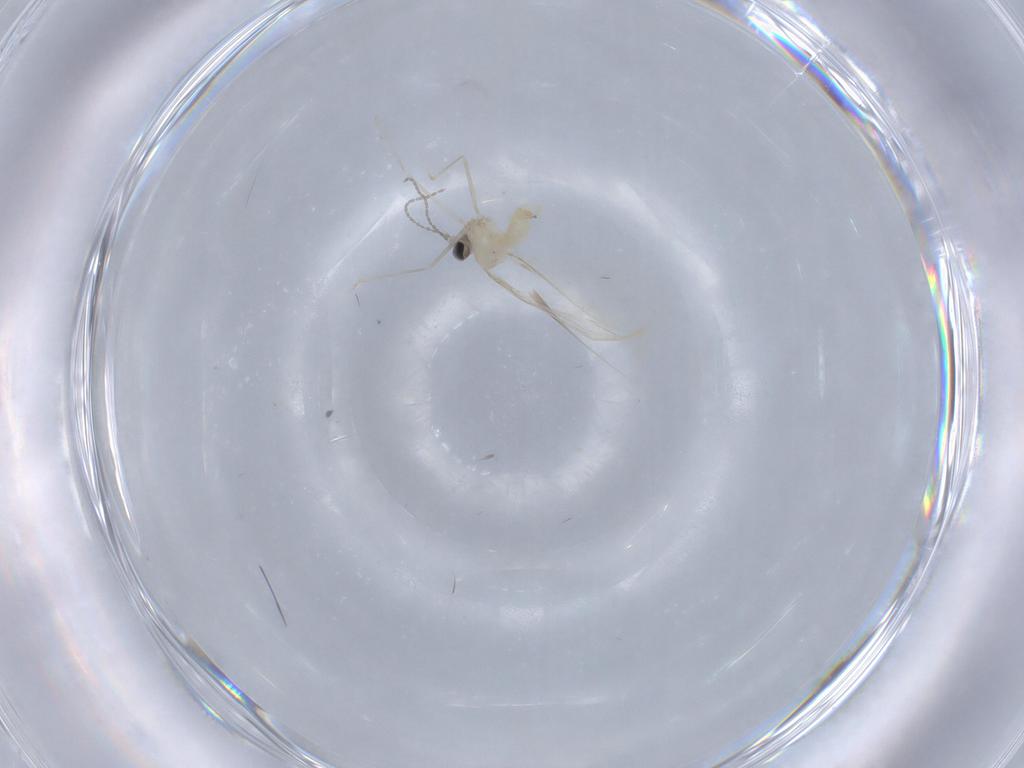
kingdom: Animalia
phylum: Arthropoda
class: Insecta
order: Diptera
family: Cecidomyiidae
